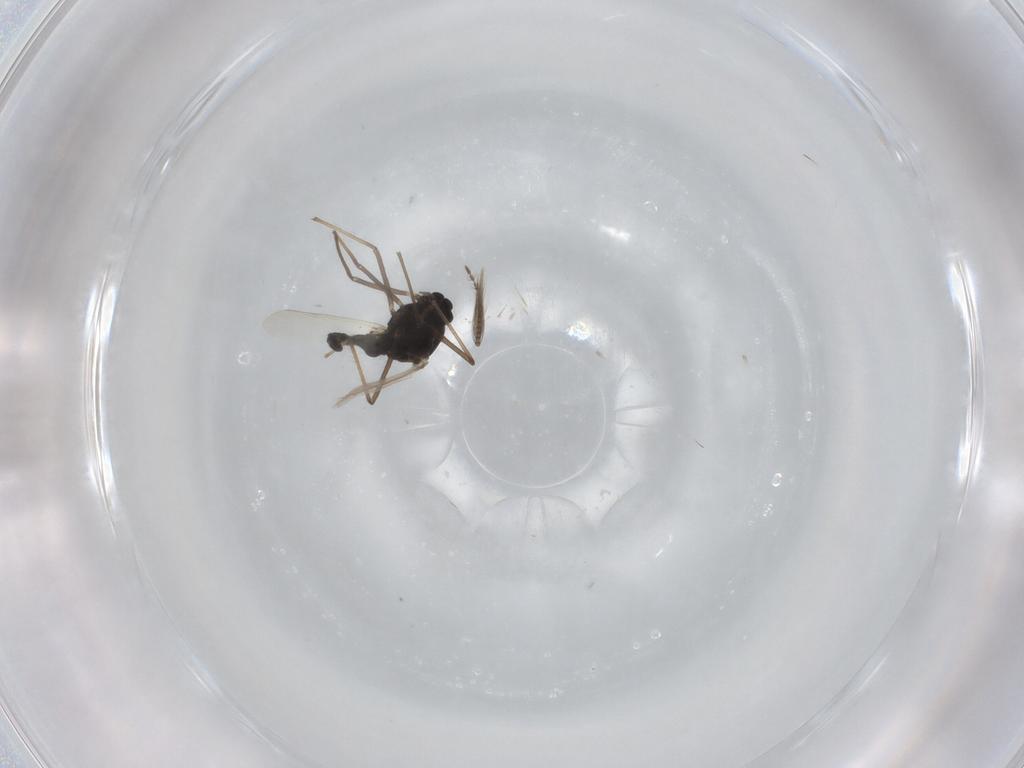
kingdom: Animalia
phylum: Arthropoda
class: Insecta
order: Diptera
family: Chironomidae
